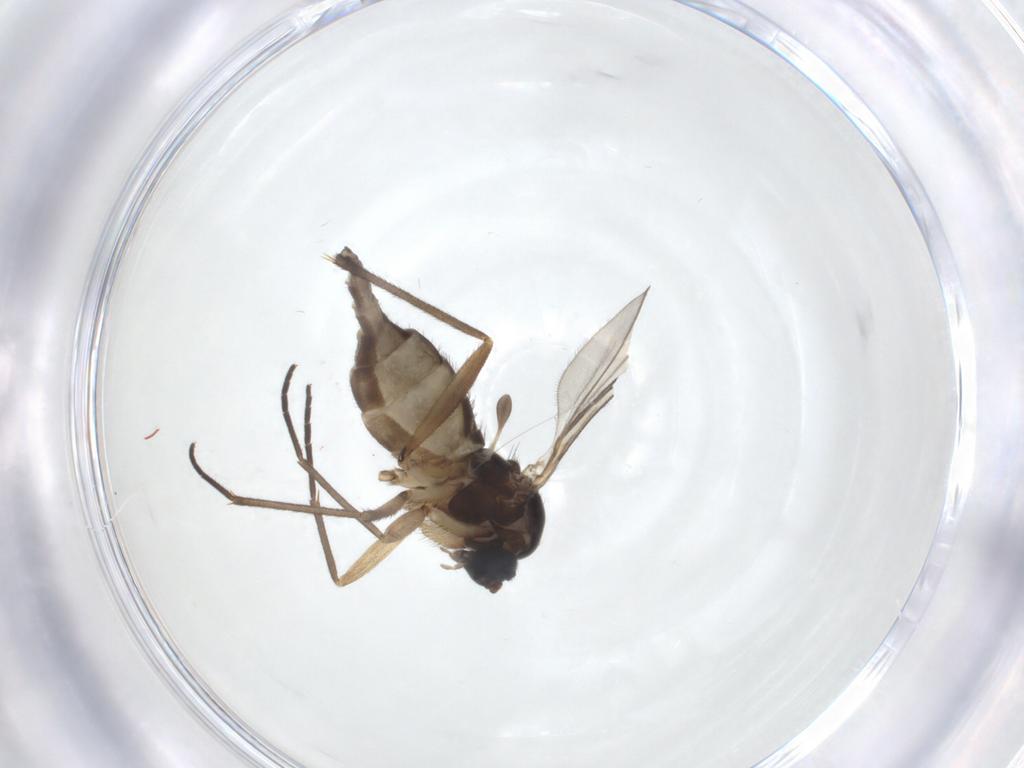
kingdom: Animalia
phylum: Arthropoda
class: Insecta
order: Diptera
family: Sciaridae
